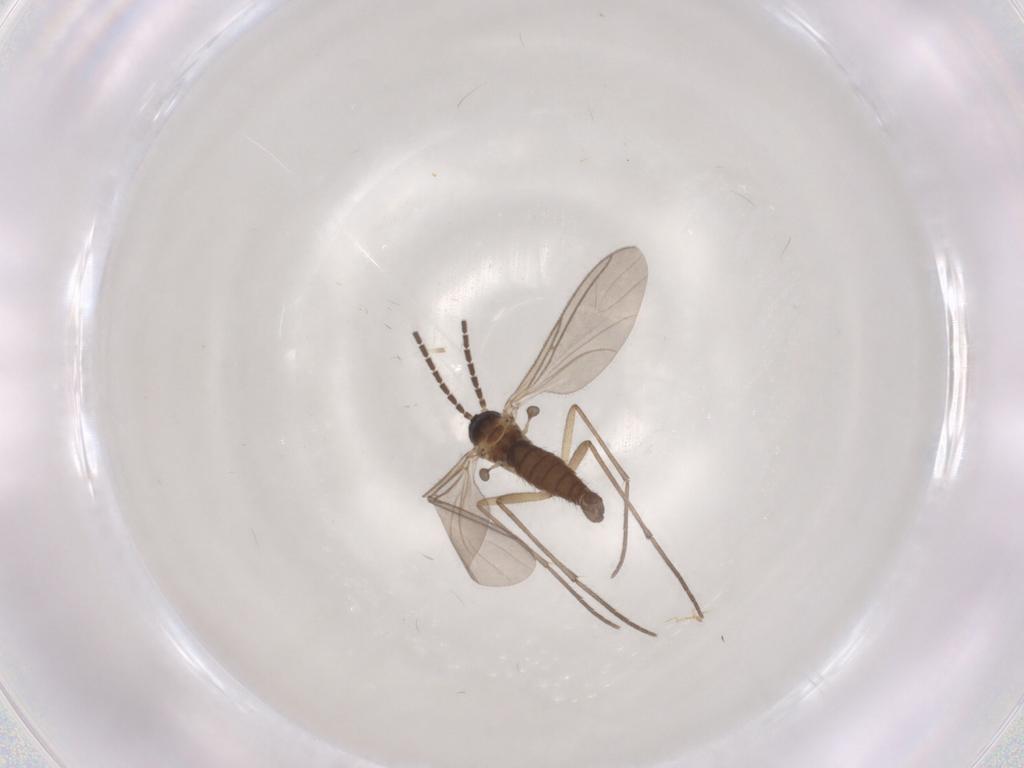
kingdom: Animalia
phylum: Arthropoda
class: Insecta
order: Diptera
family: Sciaridae
